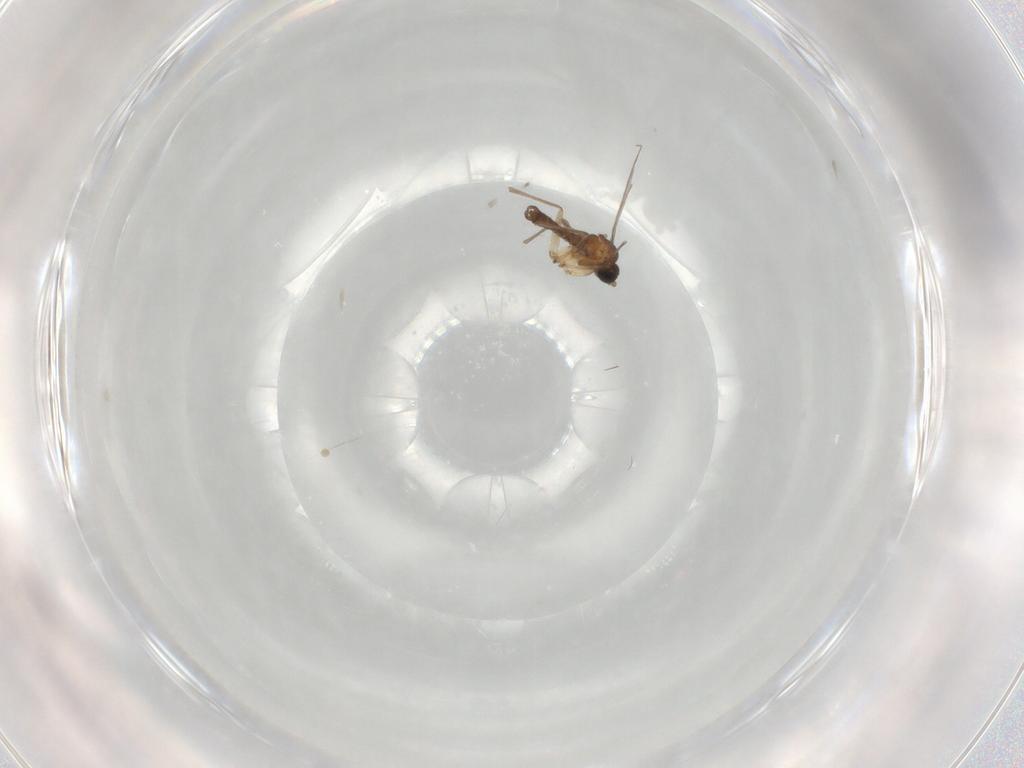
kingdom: Animalia
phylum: Arthropoda
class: Insecta
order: Diptera
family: Sciaridae
